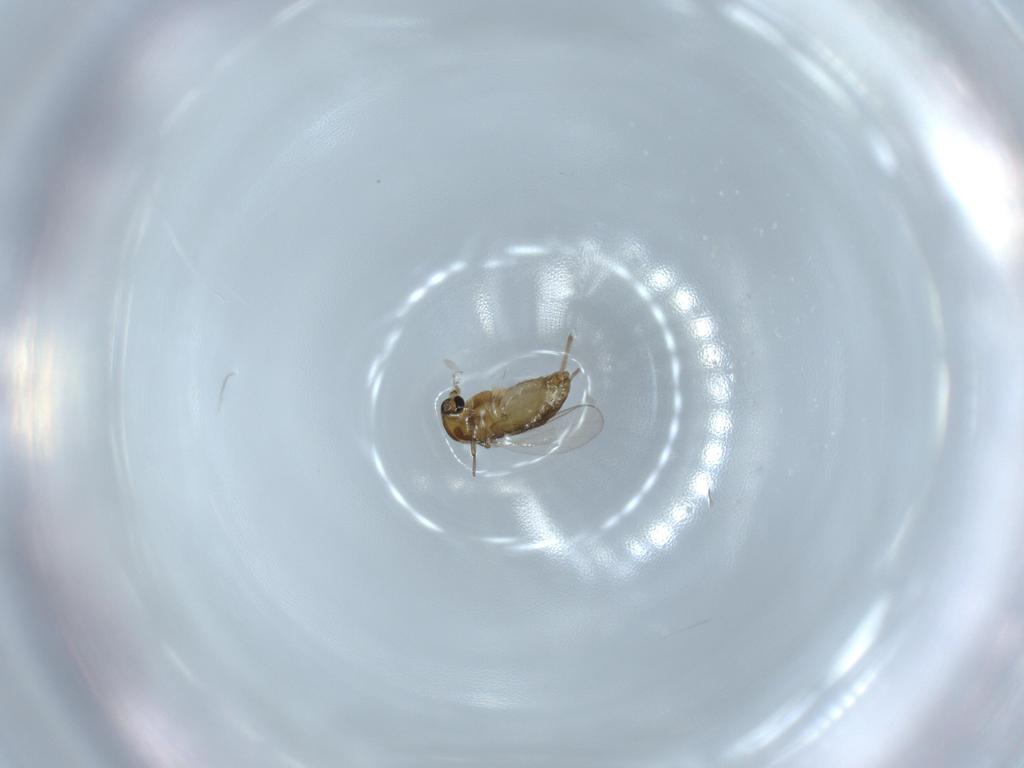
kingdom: Animalia
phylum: Arthropoda
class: Insecta
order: Diptera
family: Chironomidae
